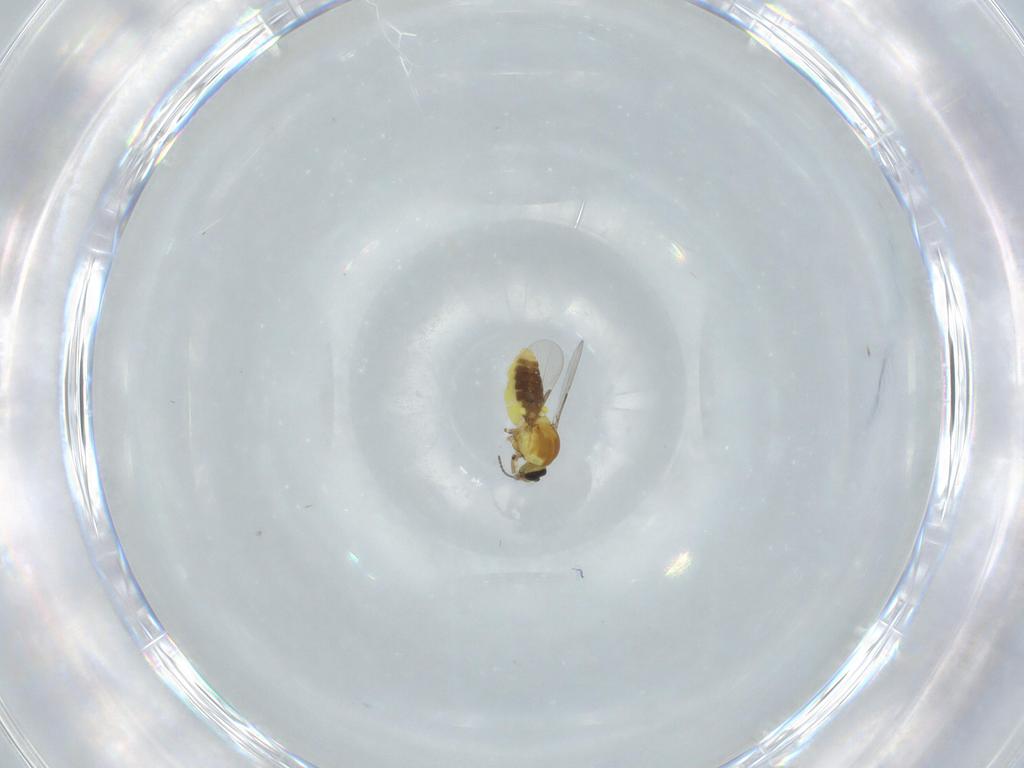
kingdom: Animalia
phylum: Arthropoda
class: Insecta
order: Diptera
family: Ceratopogonidae
